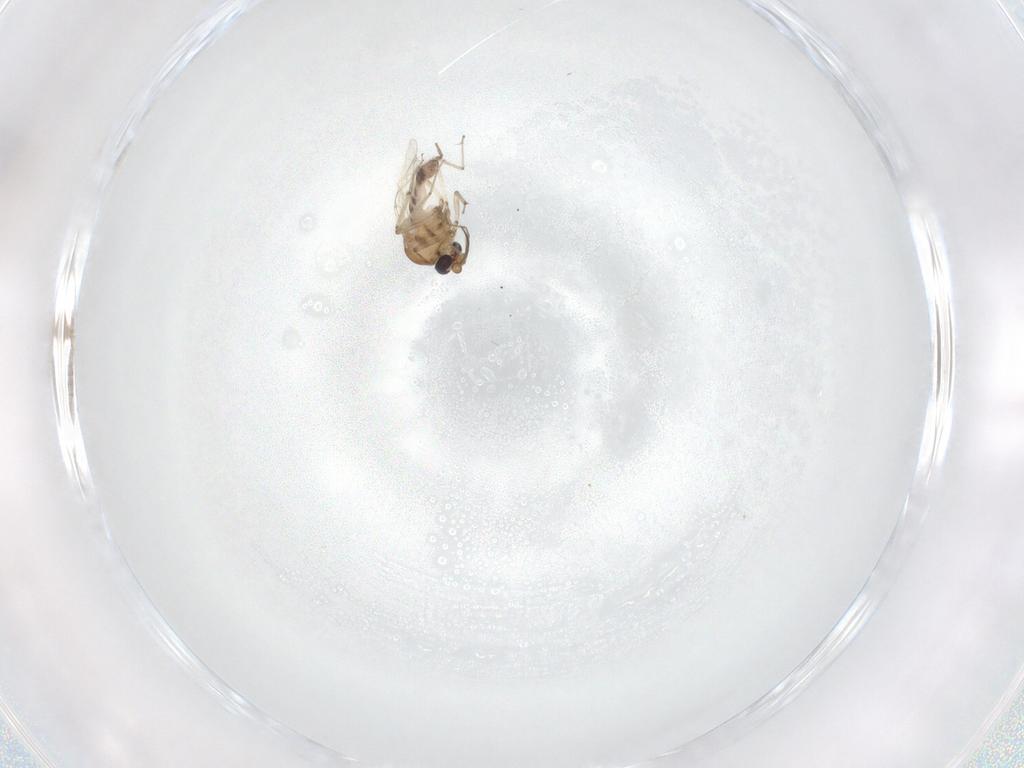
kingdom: Animalia
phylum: Arthropoda
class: Insecta
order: Diptera
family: Ceratopogonidae
